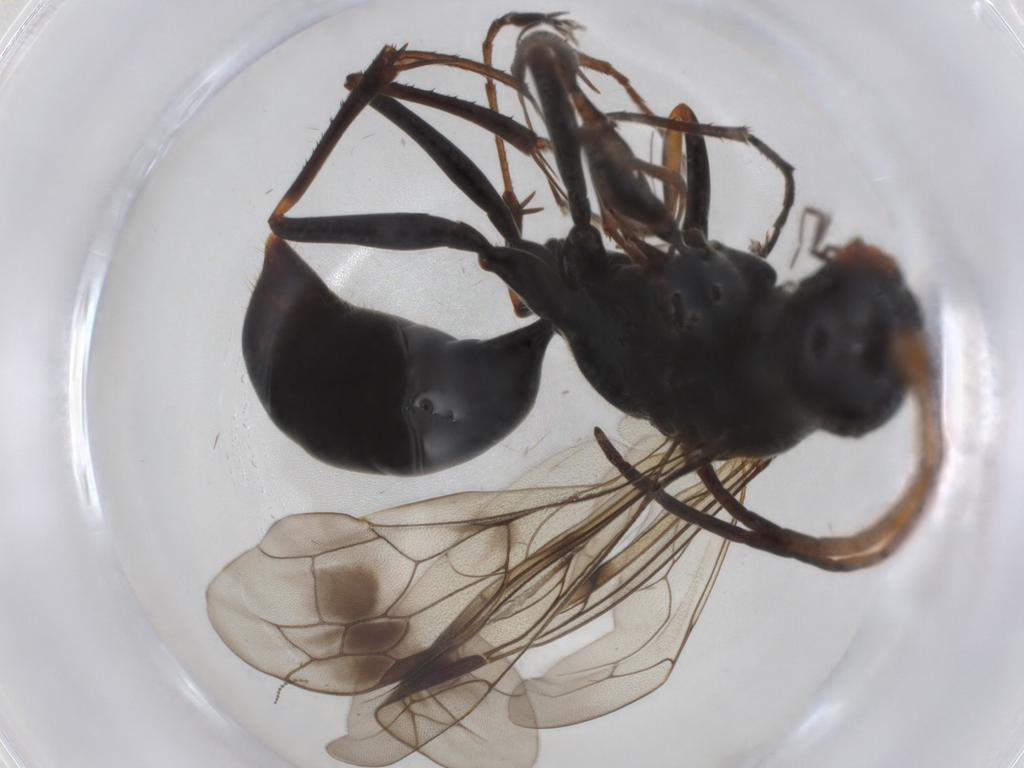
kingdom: Animalia
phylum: Arthropoda
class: Insecta
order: Hymenoptera
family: Pompilidae
